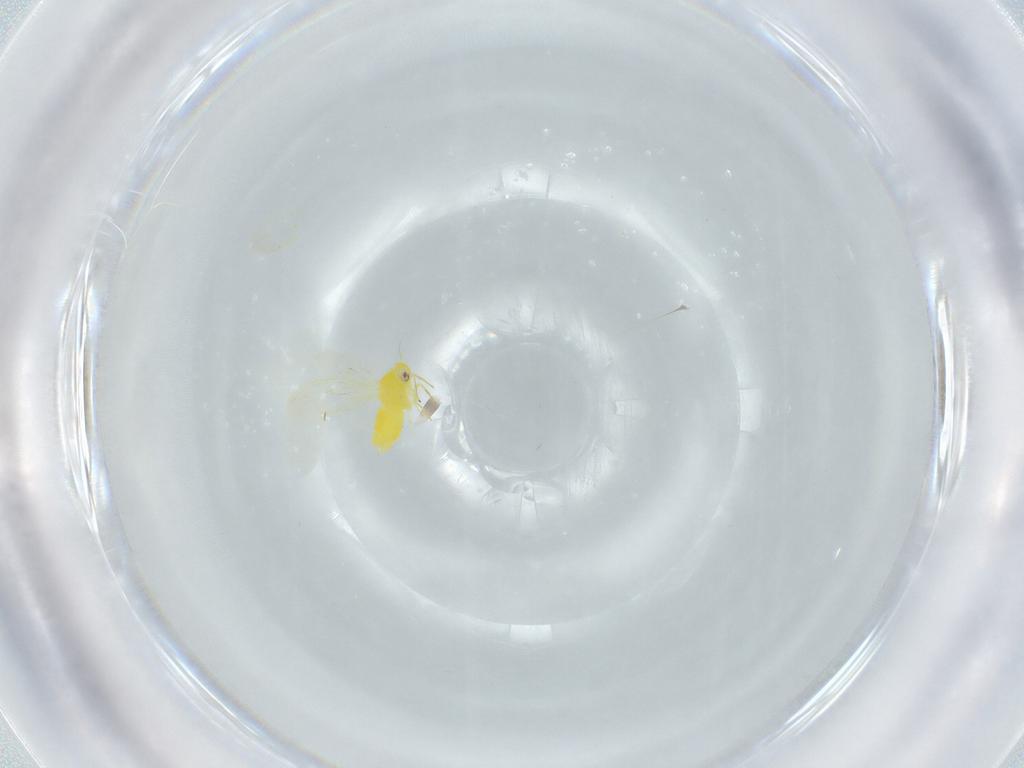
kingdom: Animalia
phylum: Arthropoda
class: Insecta
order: Hemiptera
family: Aleyrodidae
